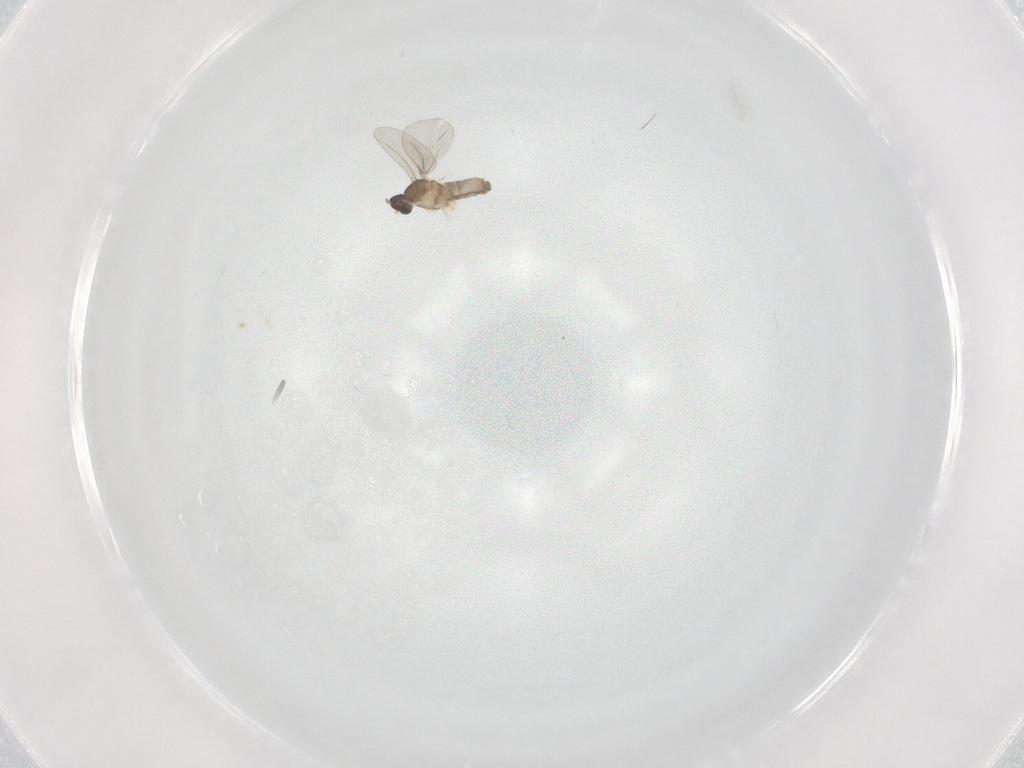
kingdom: Animalia
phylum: Arthropoda
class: Insecta
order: Diptera
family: Cecidomyiidae
